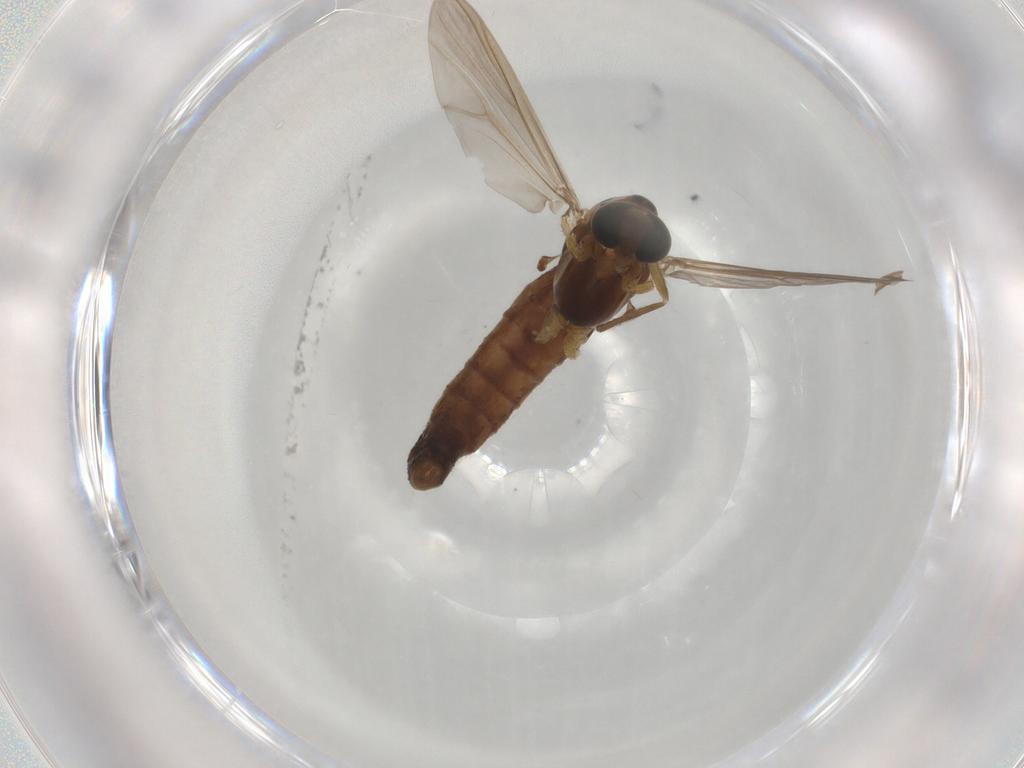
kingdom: Animalia
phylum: Arthropoda
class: Insecta
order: Diptera
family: Chironomidae
